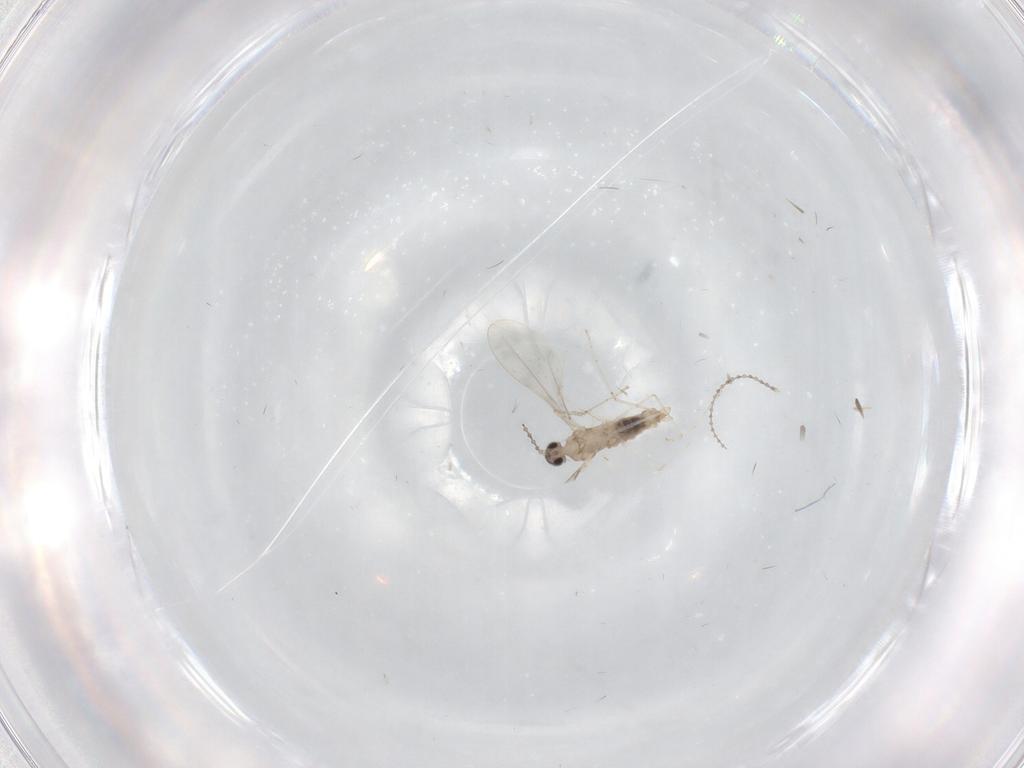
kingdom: Animalia
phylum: Arthropoda
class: Insecta
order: Diptera
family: Cecidomyiidae
